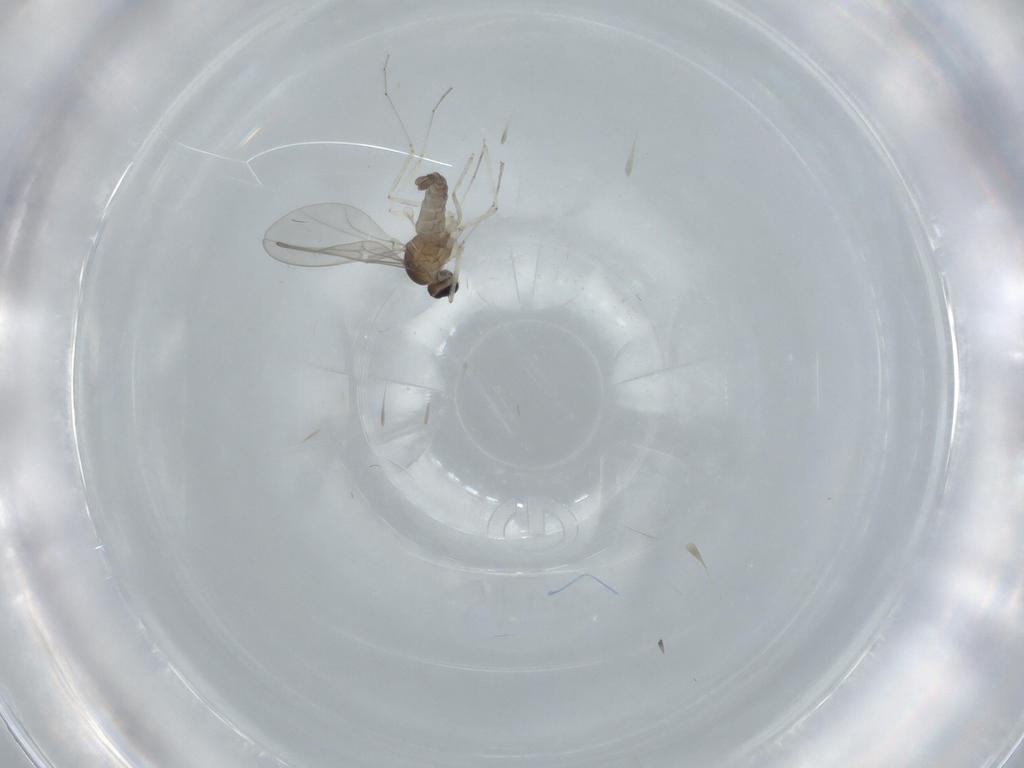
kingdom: Animalia
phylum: Arthropoda
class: Insecta
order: Diptera
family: Cecidomyiidae
